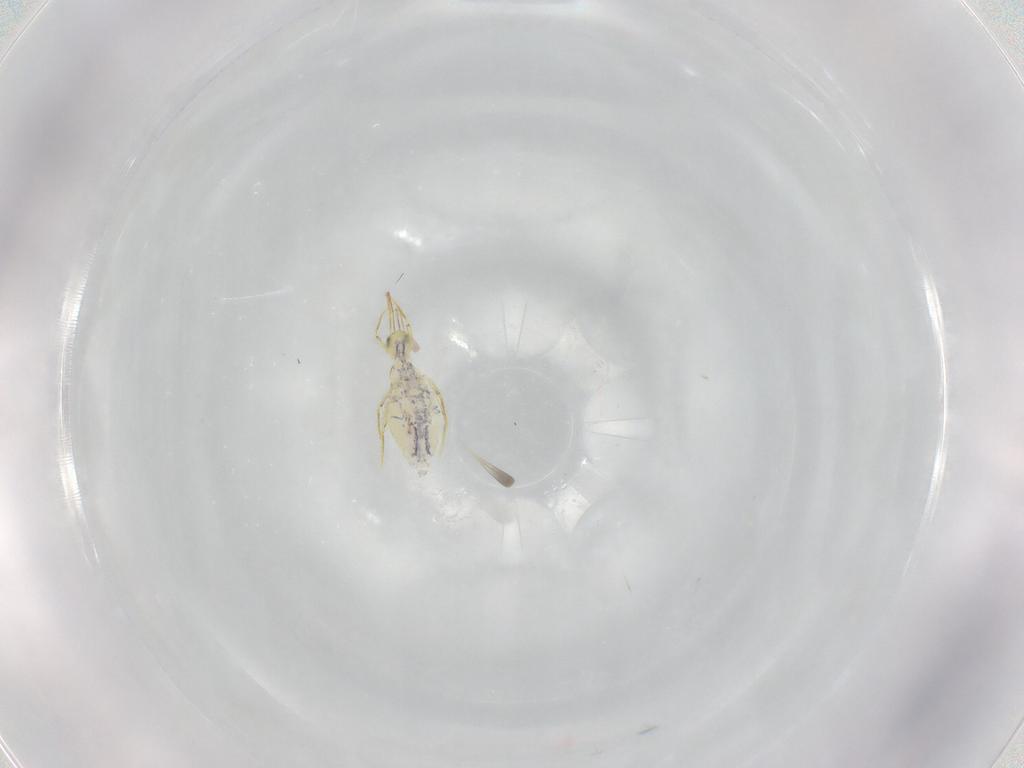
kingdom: Animalia
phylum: Arthropoda
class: Collembola
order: Entomobryomorpha
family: Entomobryidae
